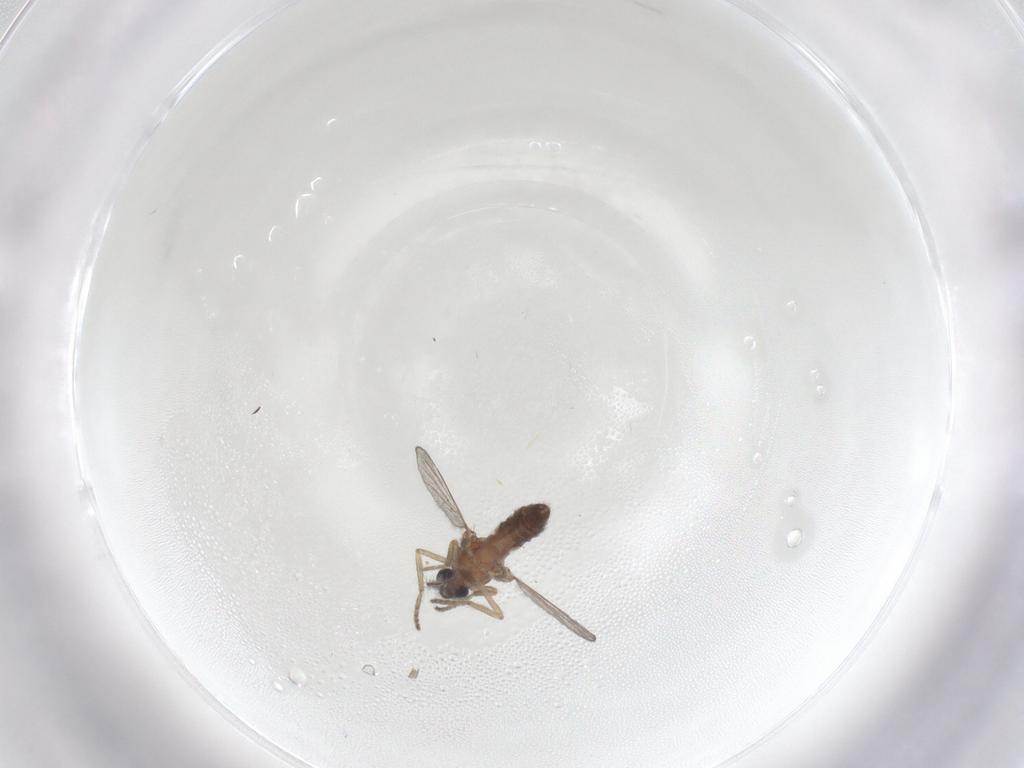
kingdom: Animalia
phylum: Arthropoda
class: Insecta
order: Diptera
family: Ceratopogonidae
